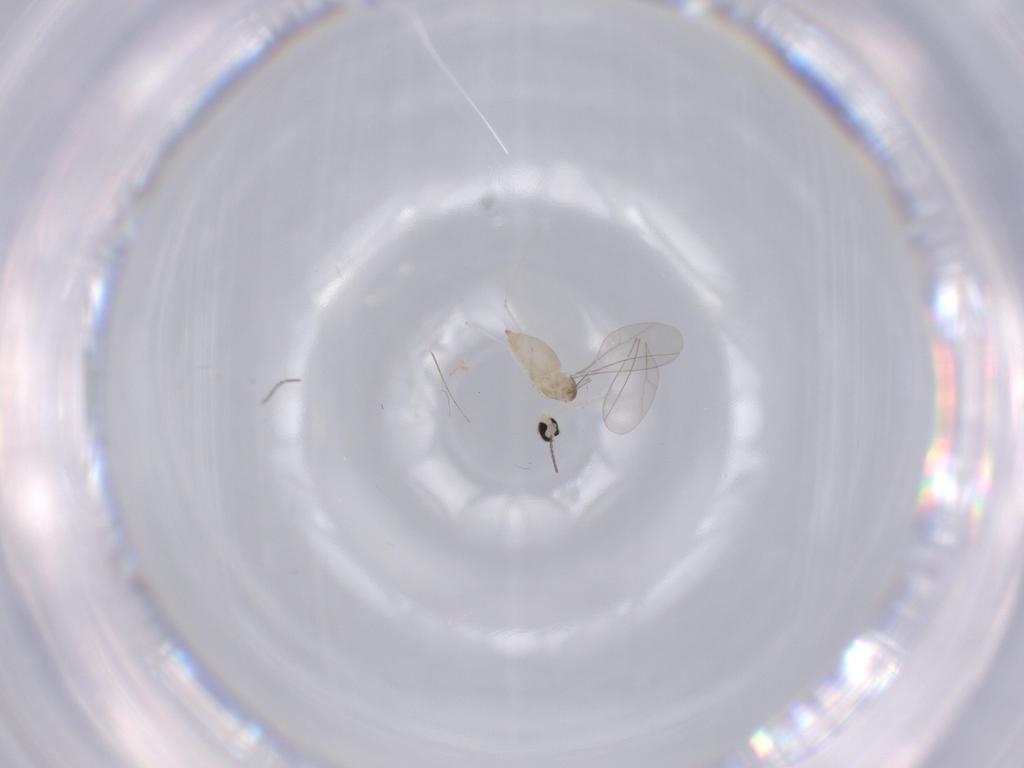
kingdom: Animalia
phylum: Arthropoda
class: Insecta
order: Diptera
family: Cecidomyiidae
